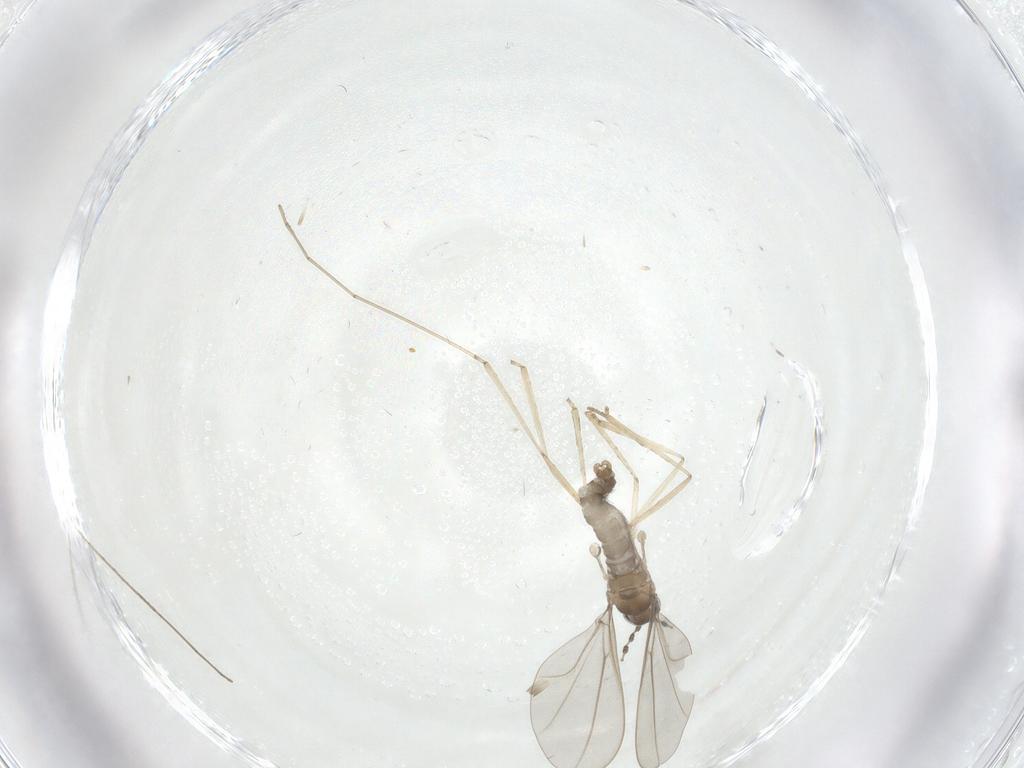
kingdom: Animalia
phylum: Arthropoda
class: Insecta
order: Diptera
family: Cecidomyiidae
